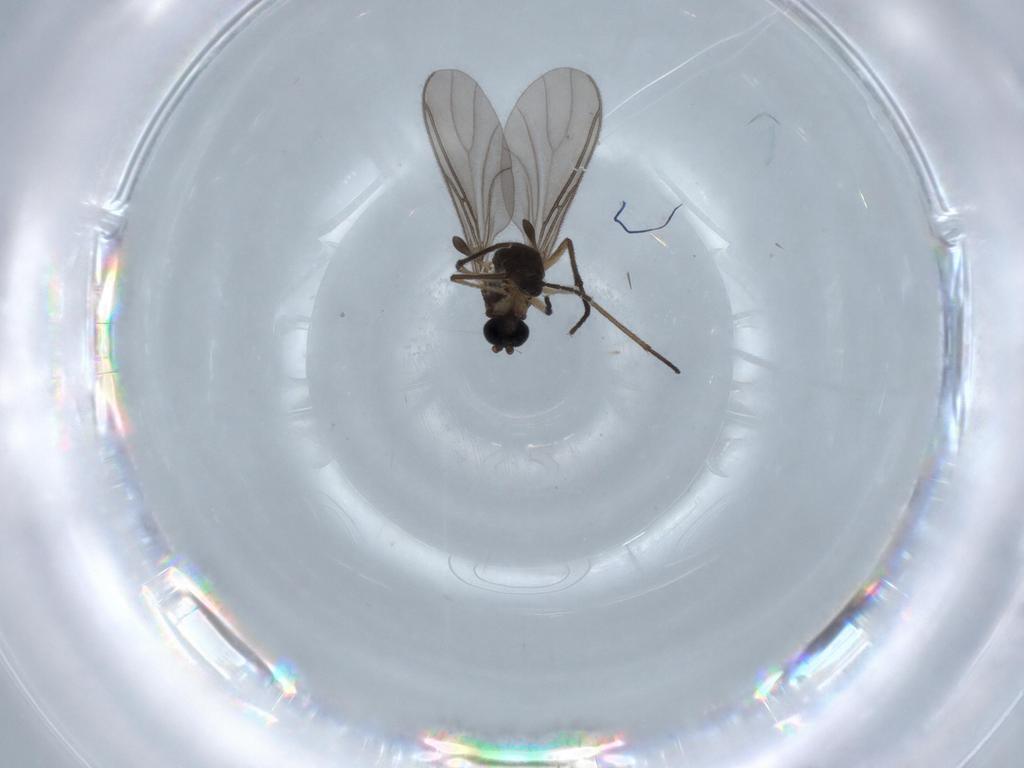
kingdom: Animalia
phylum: Arthropoda
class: Insecta
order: Diptera
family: Sciaridae
